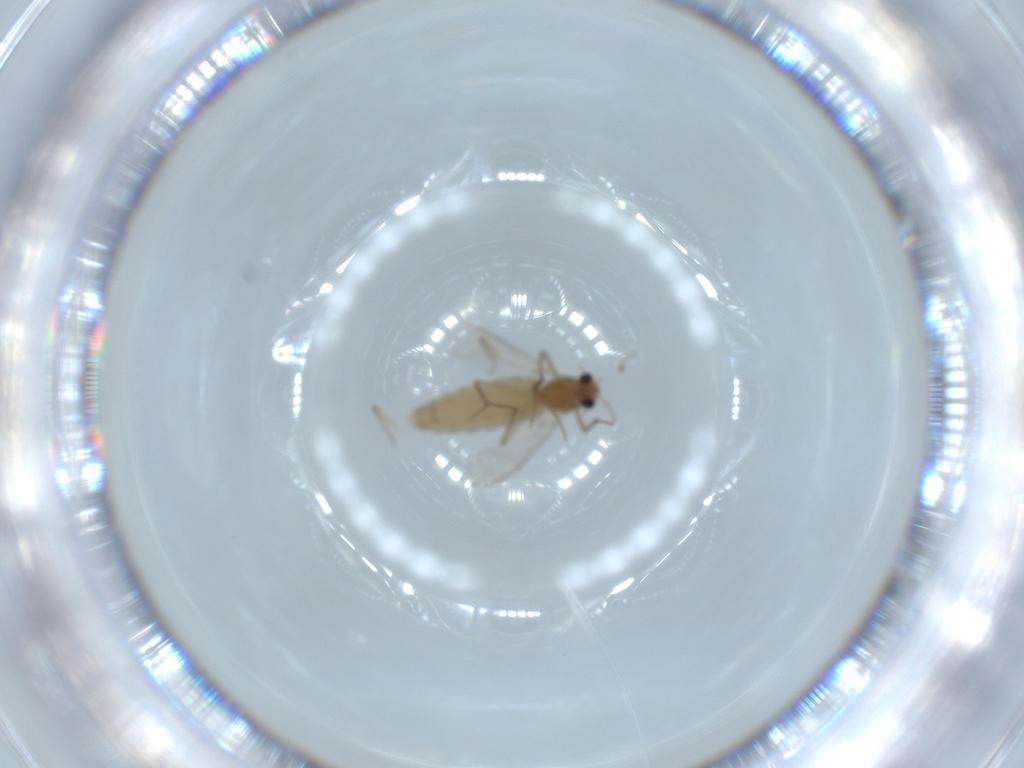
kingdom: Animalia
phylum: Arthropoda
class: Insecta
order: Diptera
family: Chironomidae
